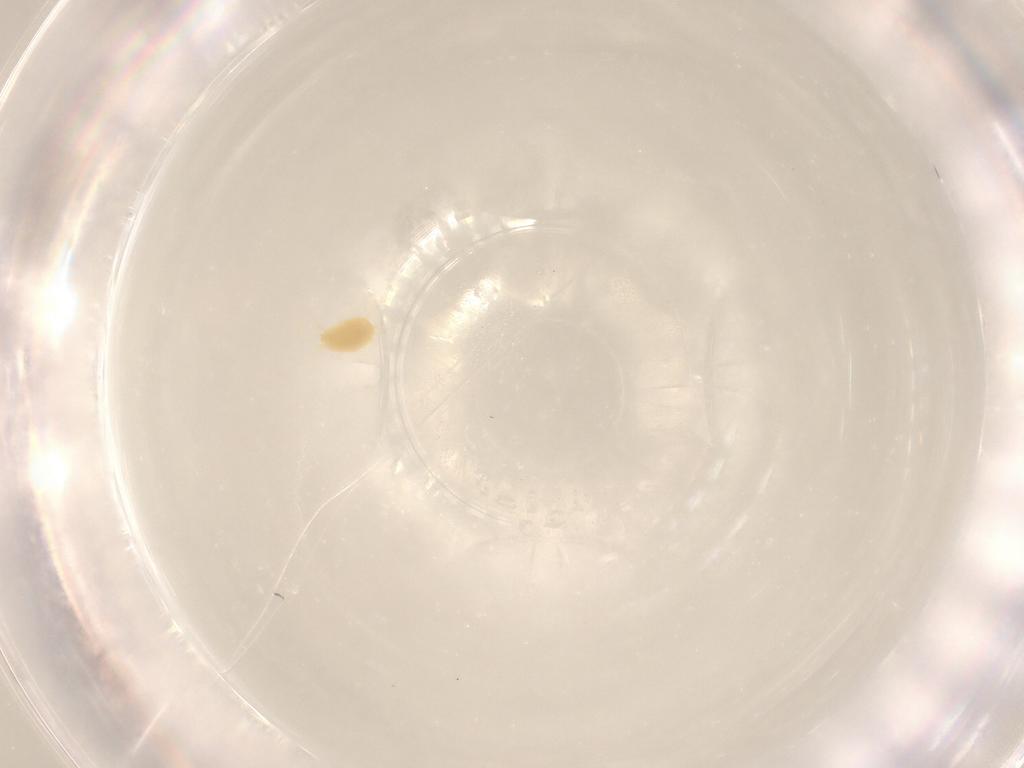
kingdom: Animalia
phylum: Arthropoda
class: Arachnida
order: Trombidiformes
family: Tetranychidae
